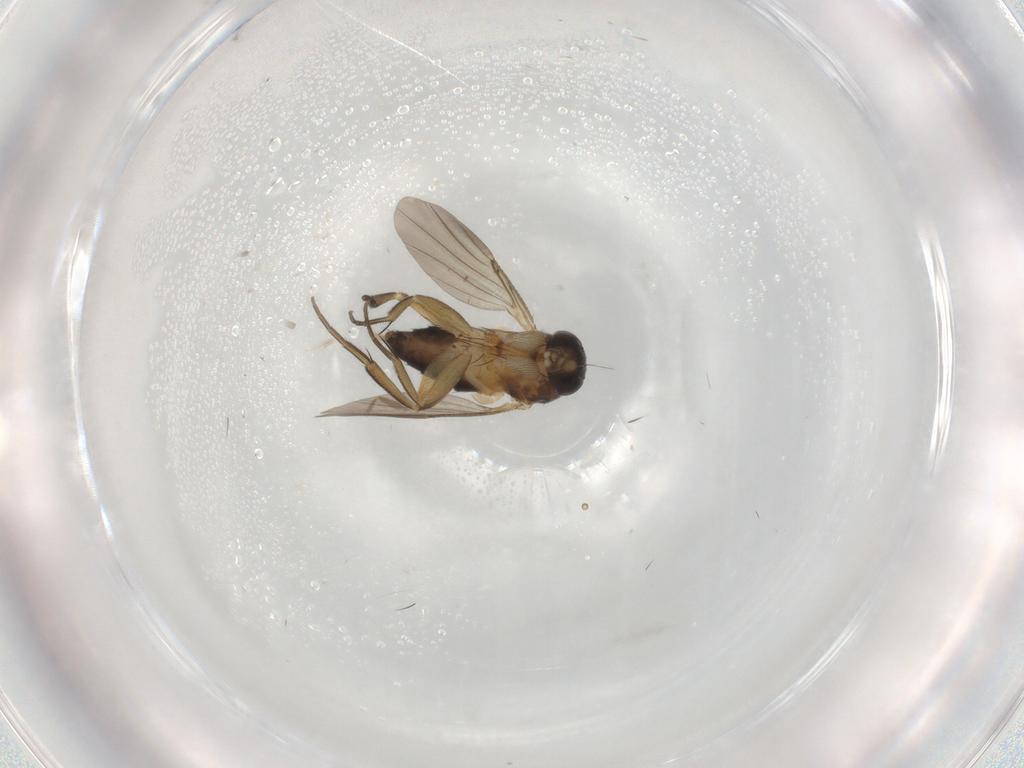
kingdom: Animalia
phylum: Arthropoda
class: Insecta
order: Diptera
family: Phoridae
